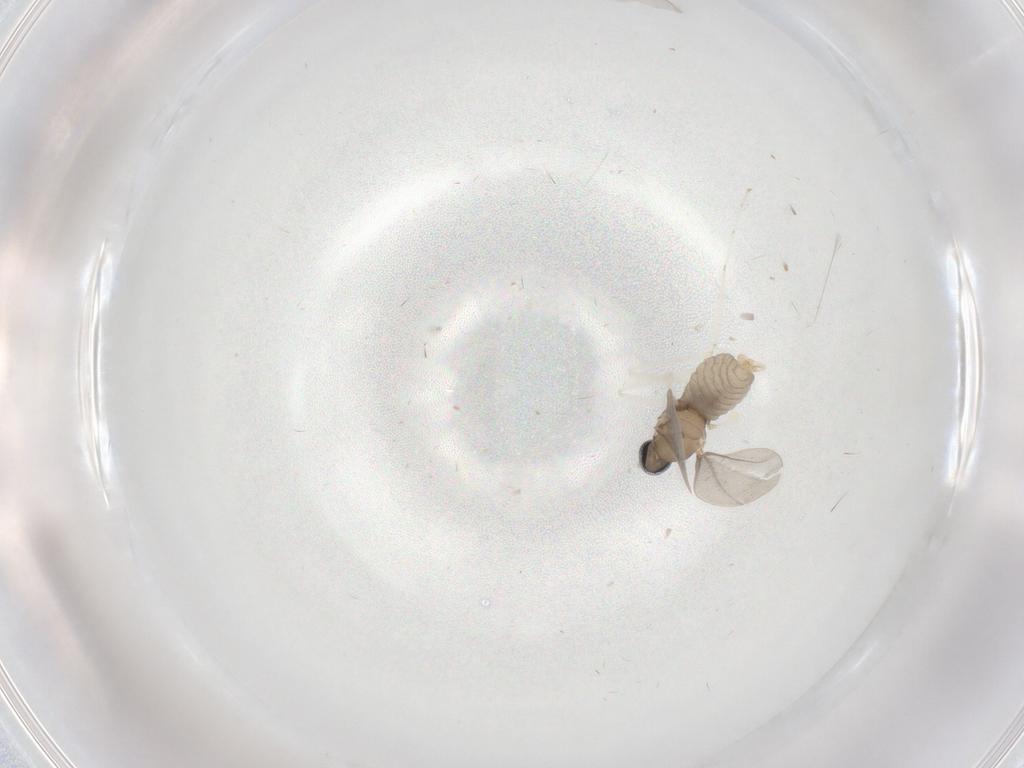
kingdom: Animalia
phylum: Arthropoda
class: Insecta
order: Diptera
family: Cecidomyiidae
